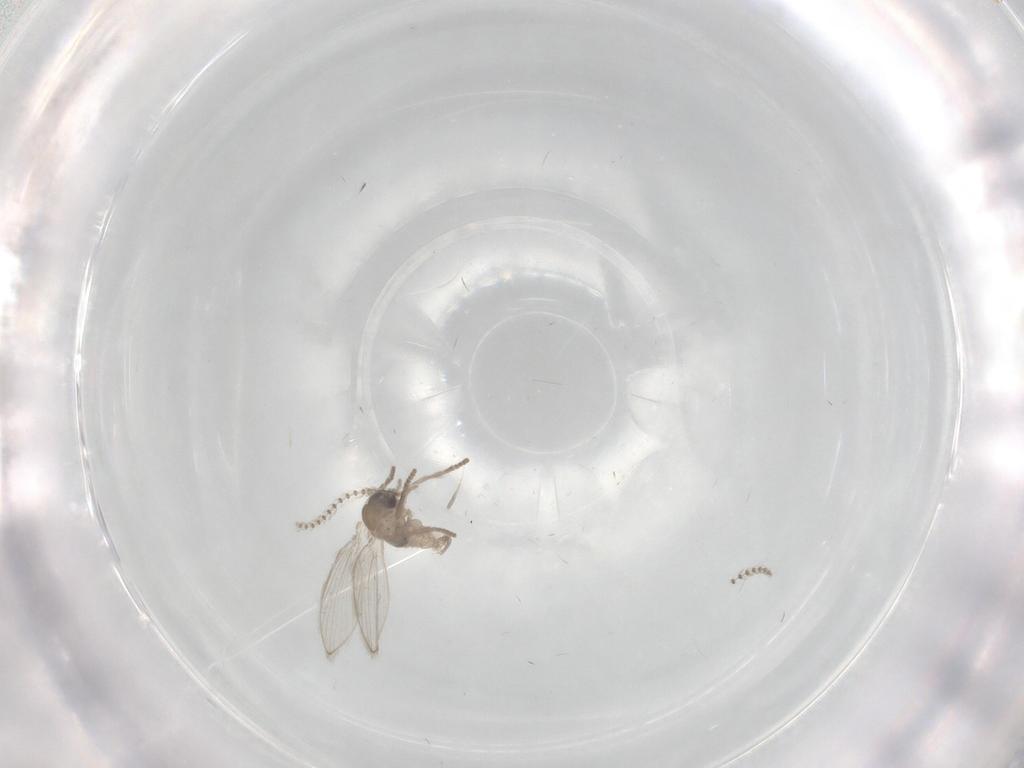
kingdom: Animalia
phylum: Arthropoda
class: Insecta
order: Diptera
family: Psychodidae
